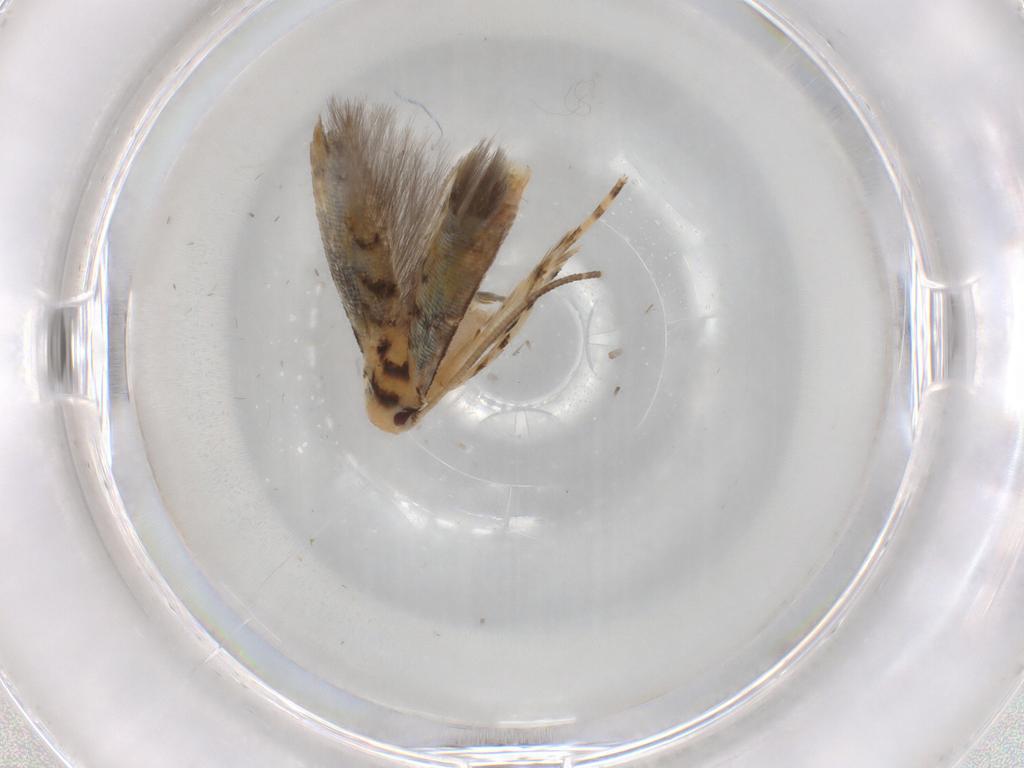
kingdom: Animalia
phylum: Arthropoda
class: Insecta
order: Lepidoptera
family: Momphidae
